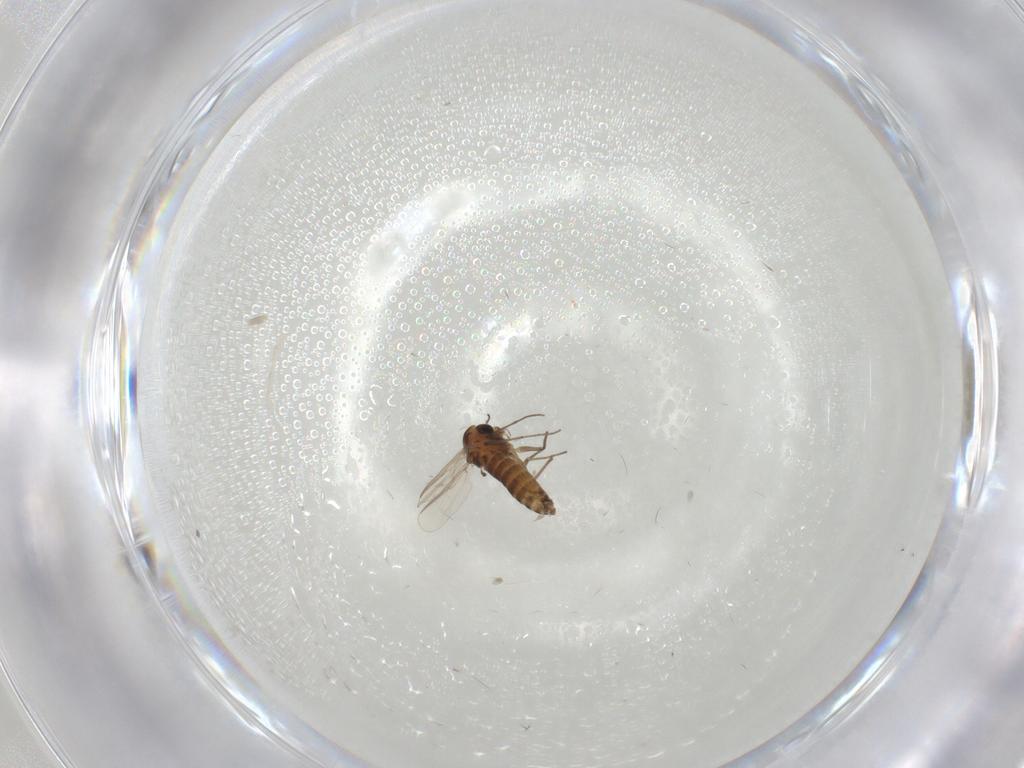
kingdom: Animalia
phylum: Arthropoda
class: Insecta
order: Diptera
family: Chironomidae
